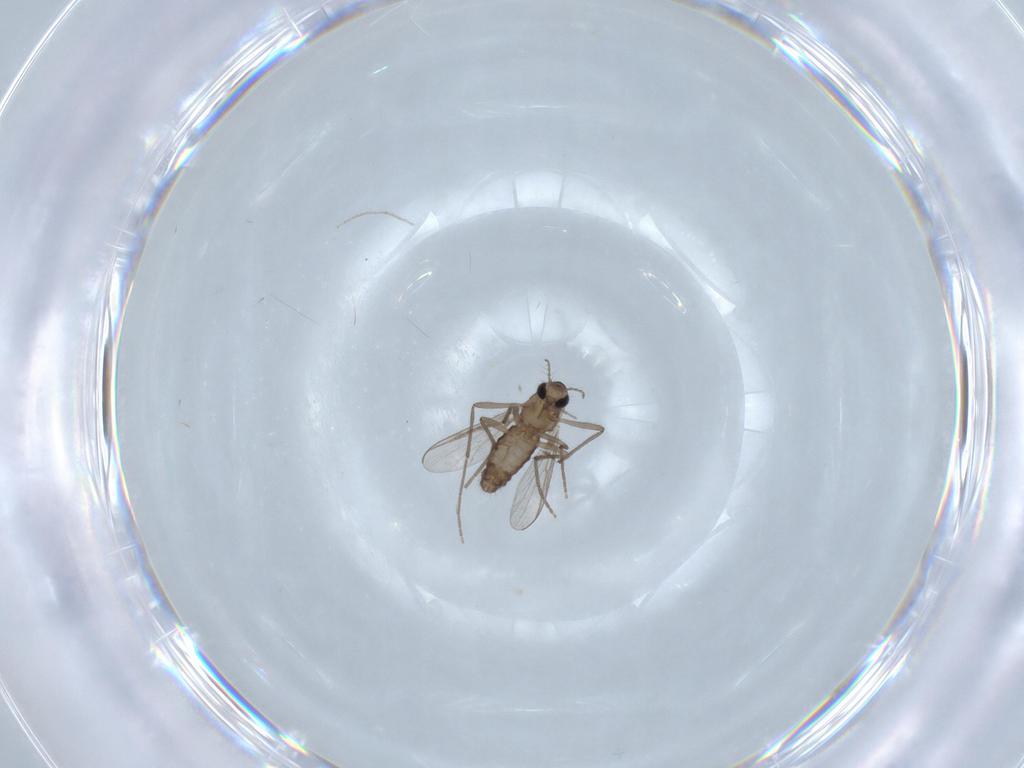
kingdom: Animalia
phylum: Arthropoda
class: Insecta
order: Diptera
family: Chironomidae
